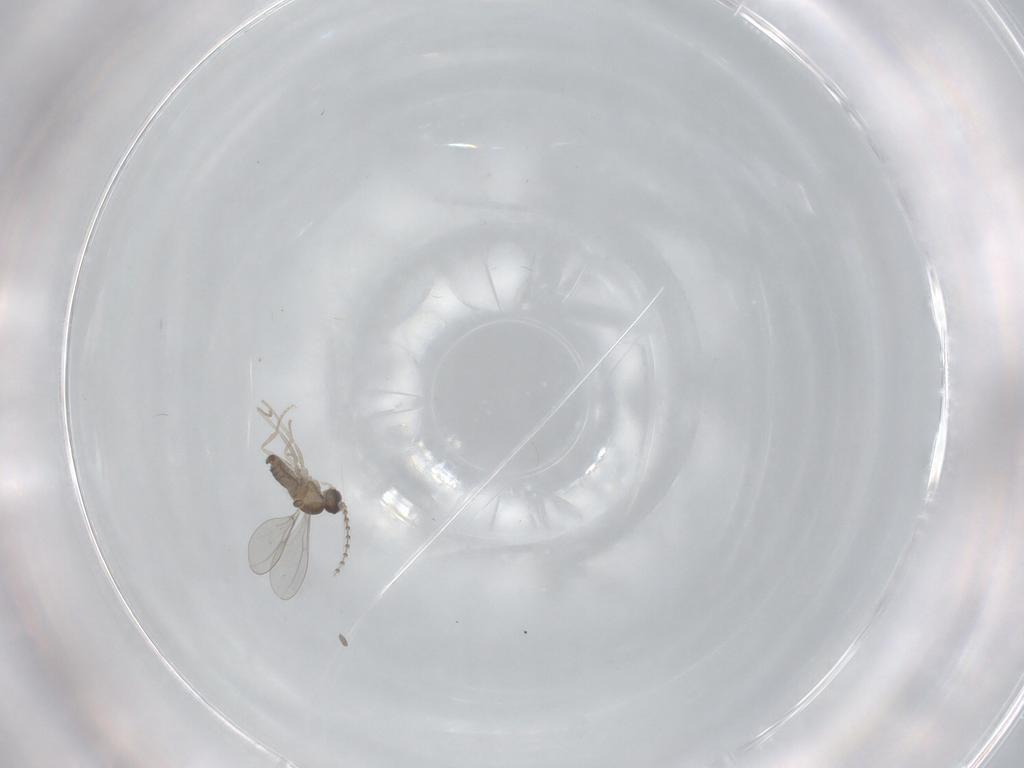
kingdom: Animalia
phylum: Arthropoda
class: Insecta
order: Diptera
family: Cecidomyiidae
